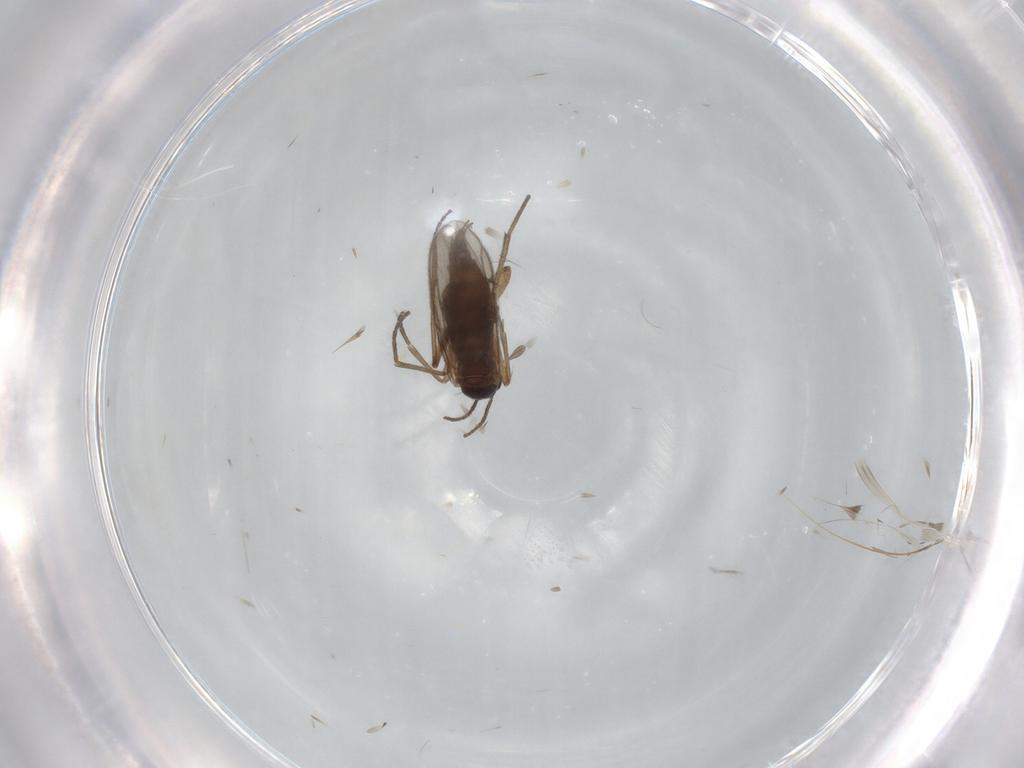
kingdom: Animalia
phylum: Arthropoda
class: Insecta
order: Diptera
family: Sciaridae
